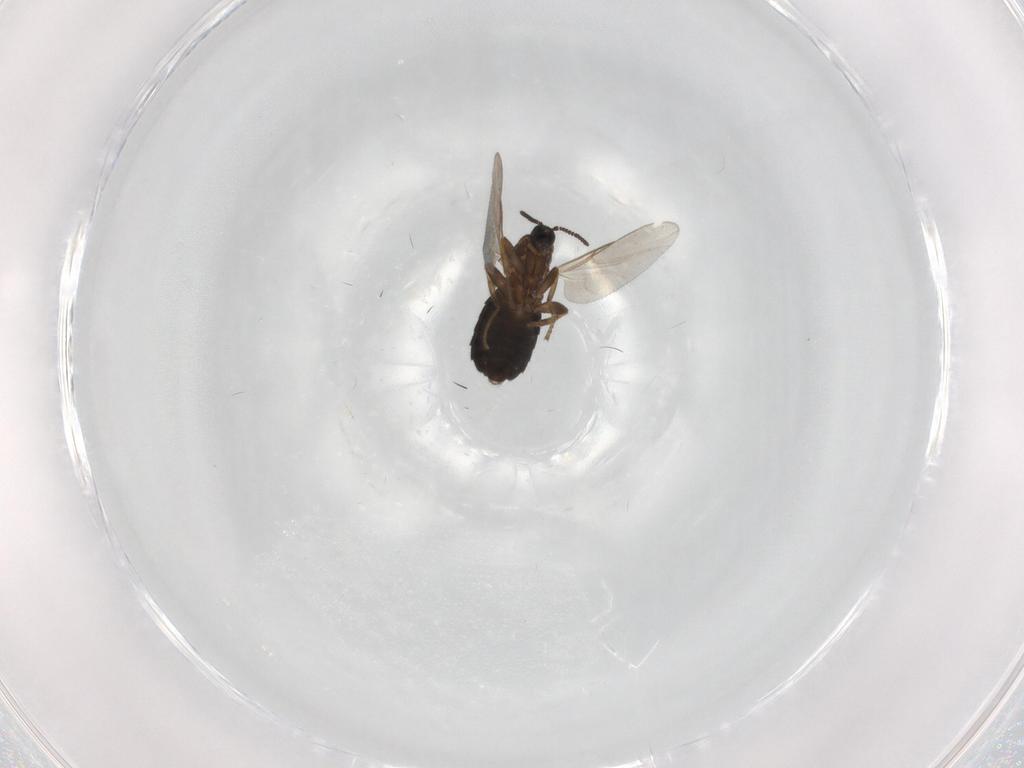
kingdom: Animalia
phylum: Arthropoda
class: Insecta
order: Diptera
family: Scatopsidae
